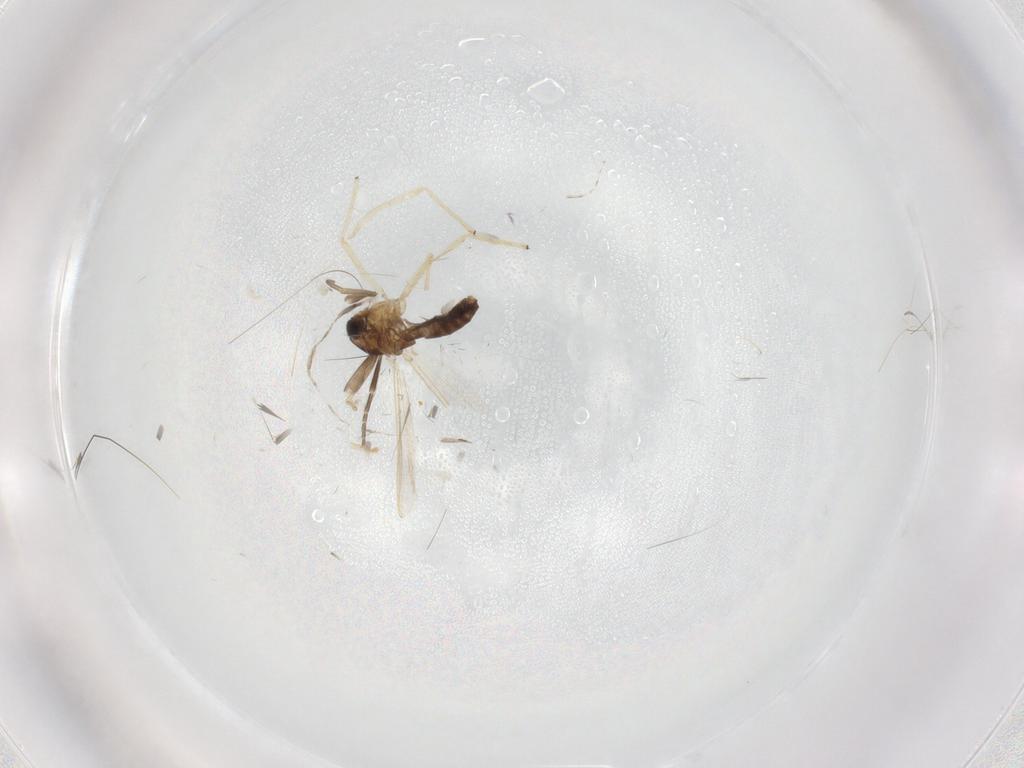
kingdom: Animalia
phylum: Arthropoda
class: Insecta
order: Diptera
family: Chironomidae
